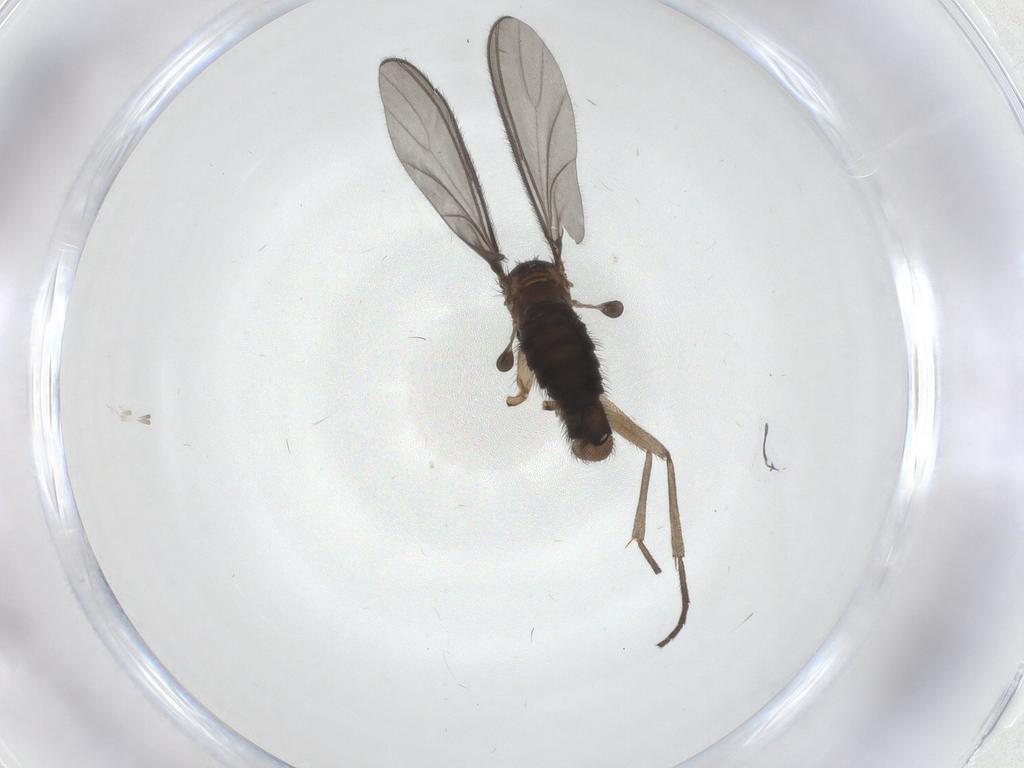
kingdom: Animalia
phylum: Arthropoda
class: Insecta
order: Diptera
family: Sciaridae
